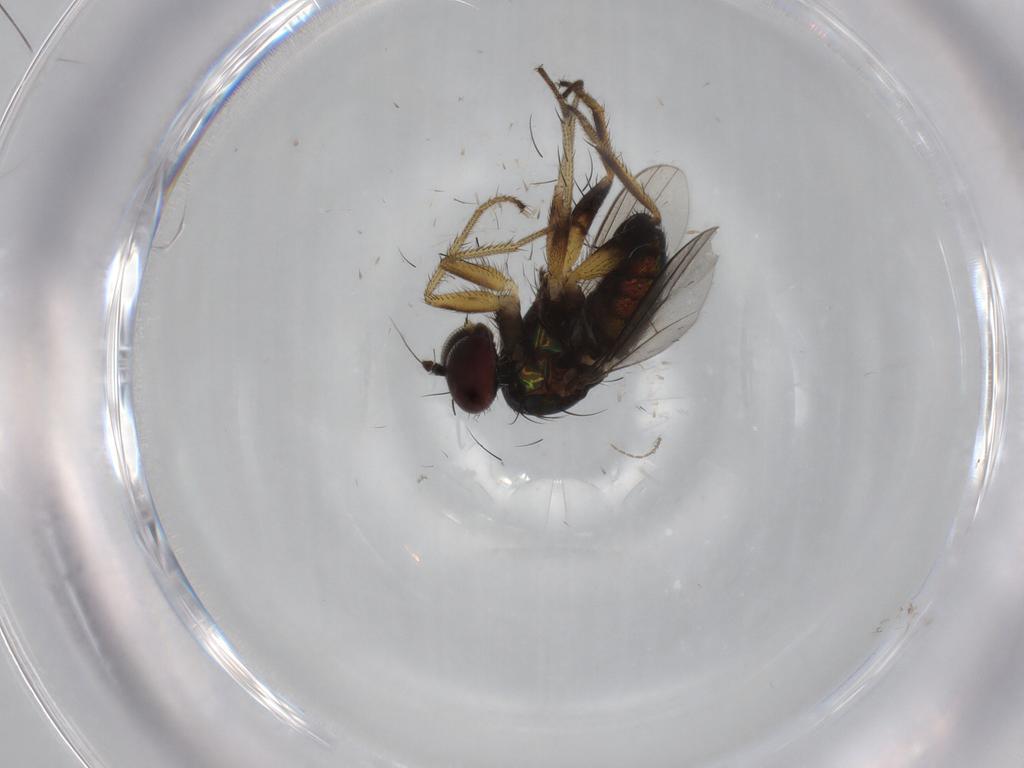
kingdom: Animalia
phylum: Arthropoda
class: Insecta
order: Diptera
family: Dolichopodidae
